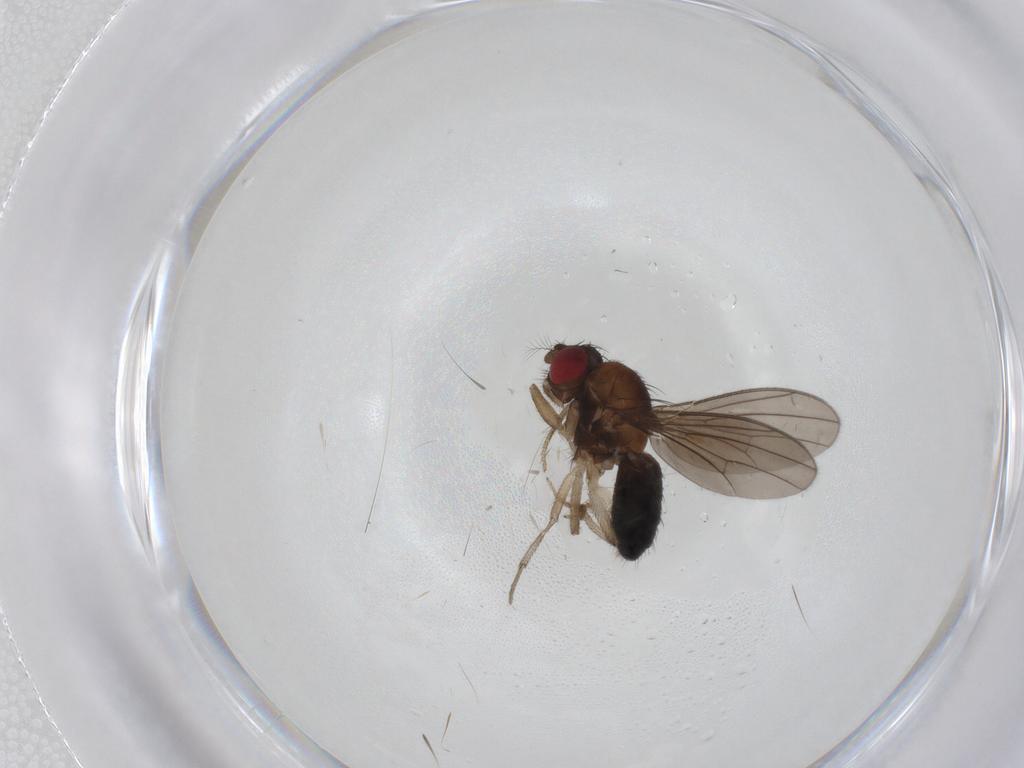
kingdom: Animalia
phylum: Arthropoda
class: Insecta
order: Diptera
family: Drosophilidae
